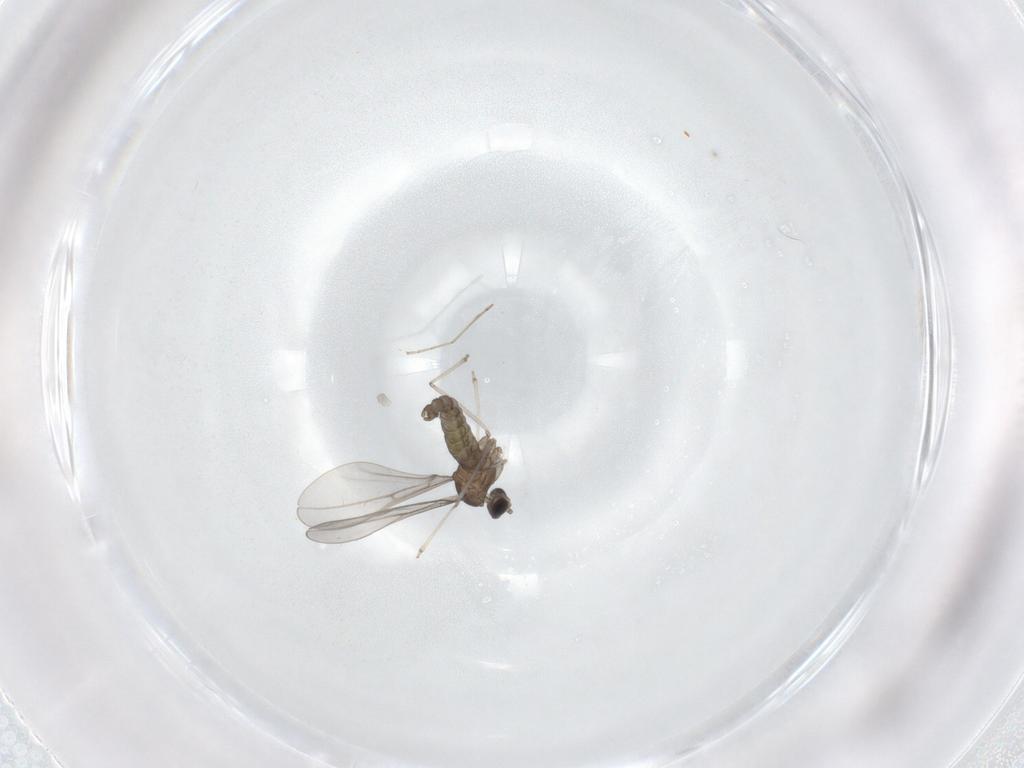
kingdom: Animalia
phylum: Arthropoda
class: Insecta
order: Diptera
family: Cecidomyiidae
